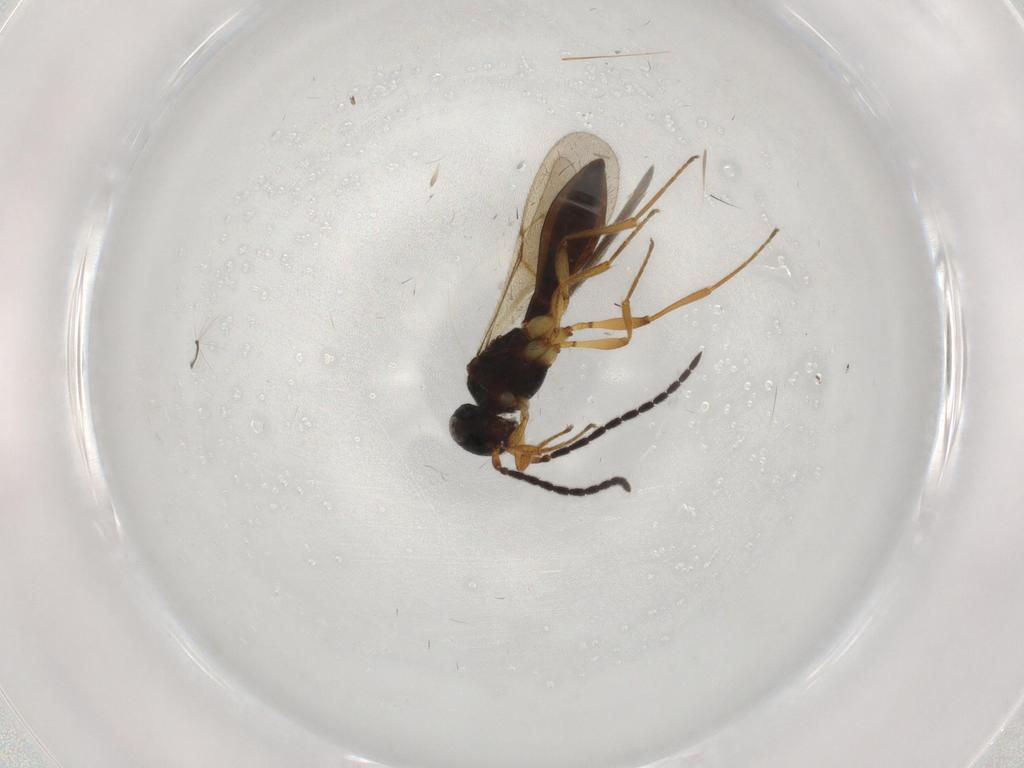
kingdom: Animalia
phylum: Arthropoda
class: Insecta
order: Hymenoptera
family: Scelionidae
